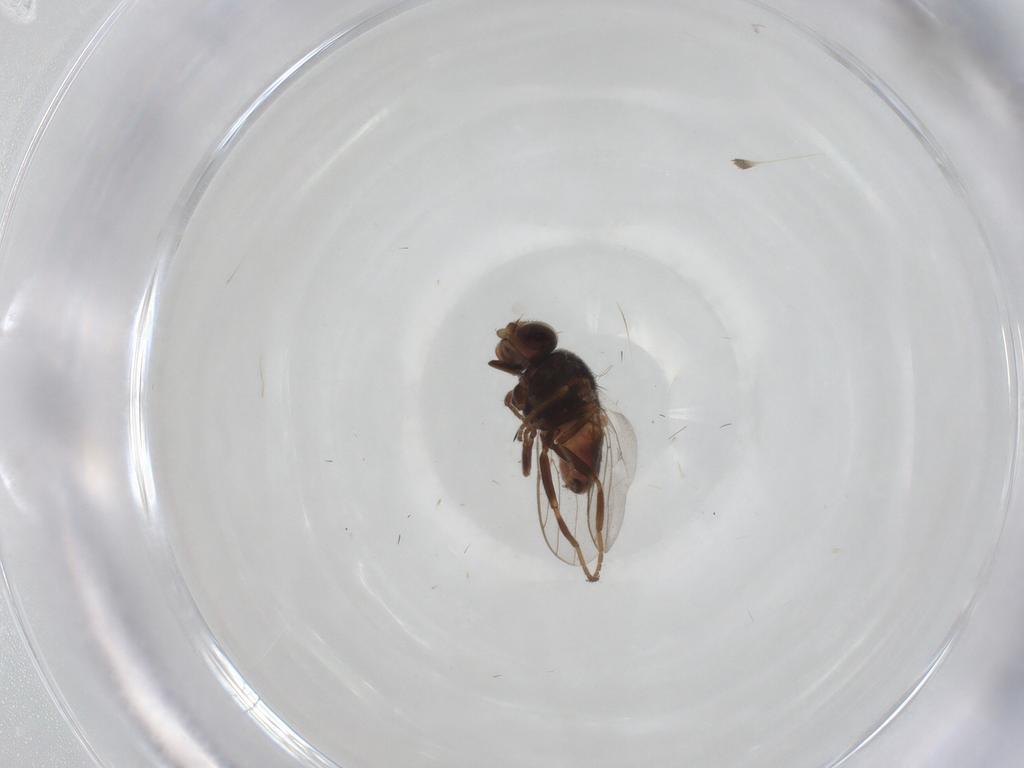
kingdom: Animalia
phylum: Arthropoda
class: Insecta
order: Diptera
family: Chloropidae
